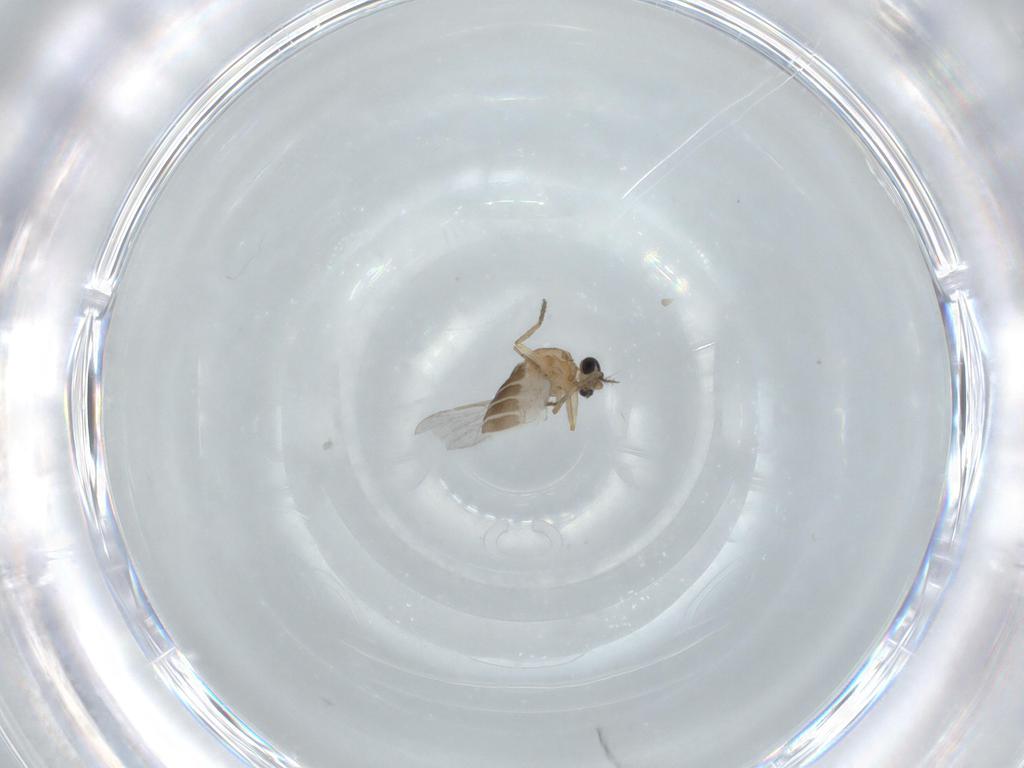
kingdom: Animalia
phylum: Arthropoda
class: Insecta
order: Diptera
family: Ceratopogonidae
